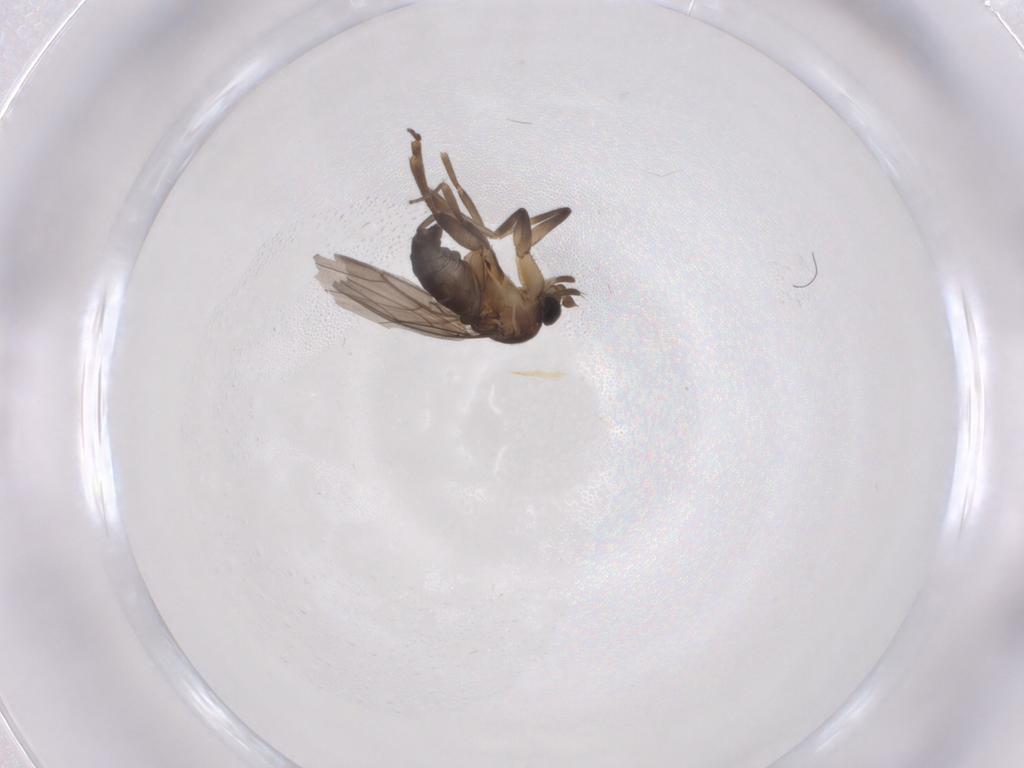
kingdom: Animalia
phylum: Arthropoda
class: Insecta
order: Diptera
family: Phoridae
